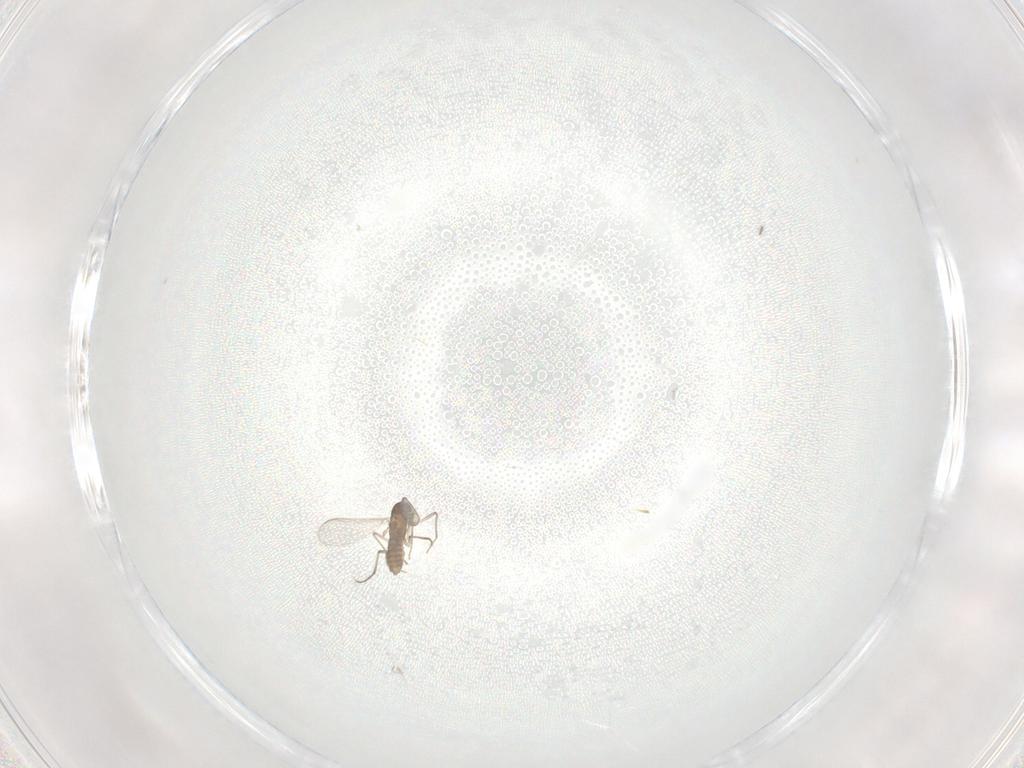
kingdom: Animalia
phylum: Arthropoda
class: Insecta
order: Diptera
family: Chironomidae
